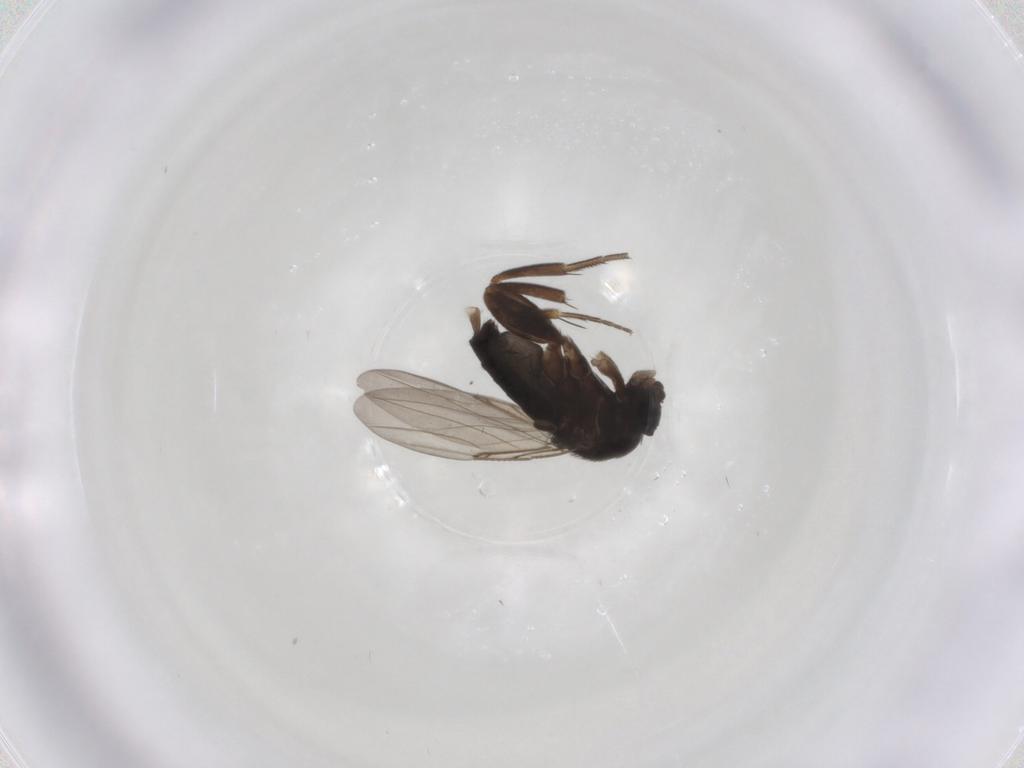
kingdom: Animalia
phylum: Arthropoda
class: Insecta
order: Diptera
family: Phoridae
